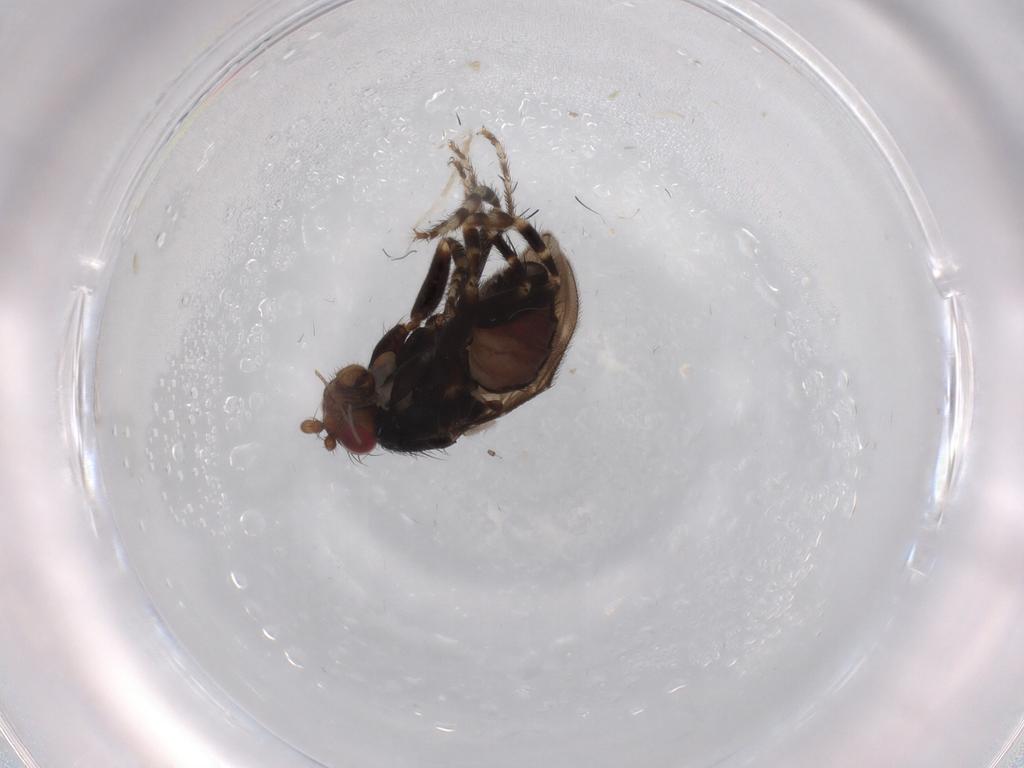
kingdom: Animalia
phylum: Arthropoda
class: Insecta
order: Diptera
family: Sphaeroceridae
